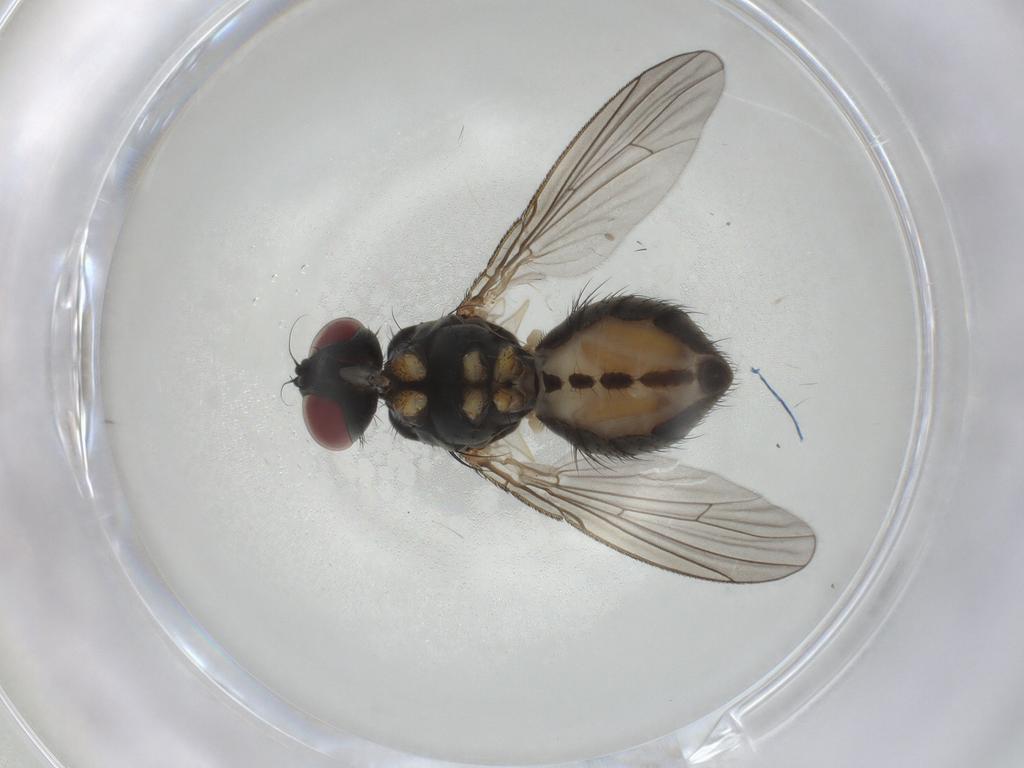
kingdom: Animalia
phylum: Arthropoda
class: Insecta
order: Diptera
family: Muscidae
